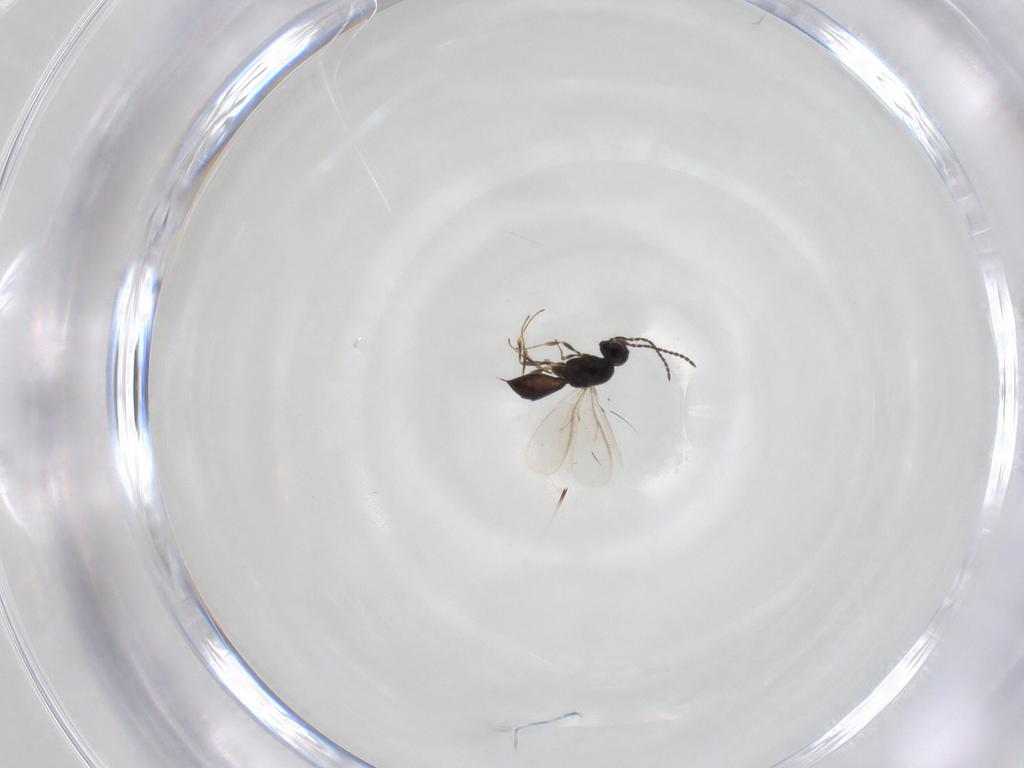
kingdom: Animalia
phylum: Arthropoda
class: Insecta
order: Hymenoptera
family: Scelionidae
